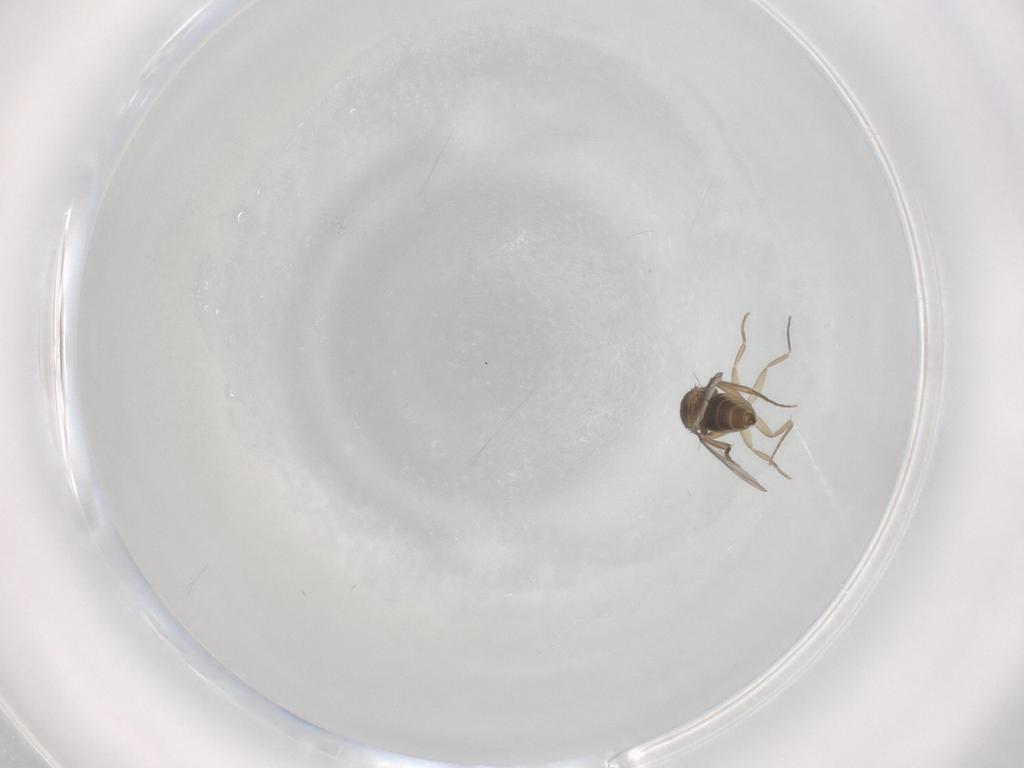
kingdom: Animalia
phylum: Arthropoda
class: Insecta
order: Diptera
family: Phoridae
